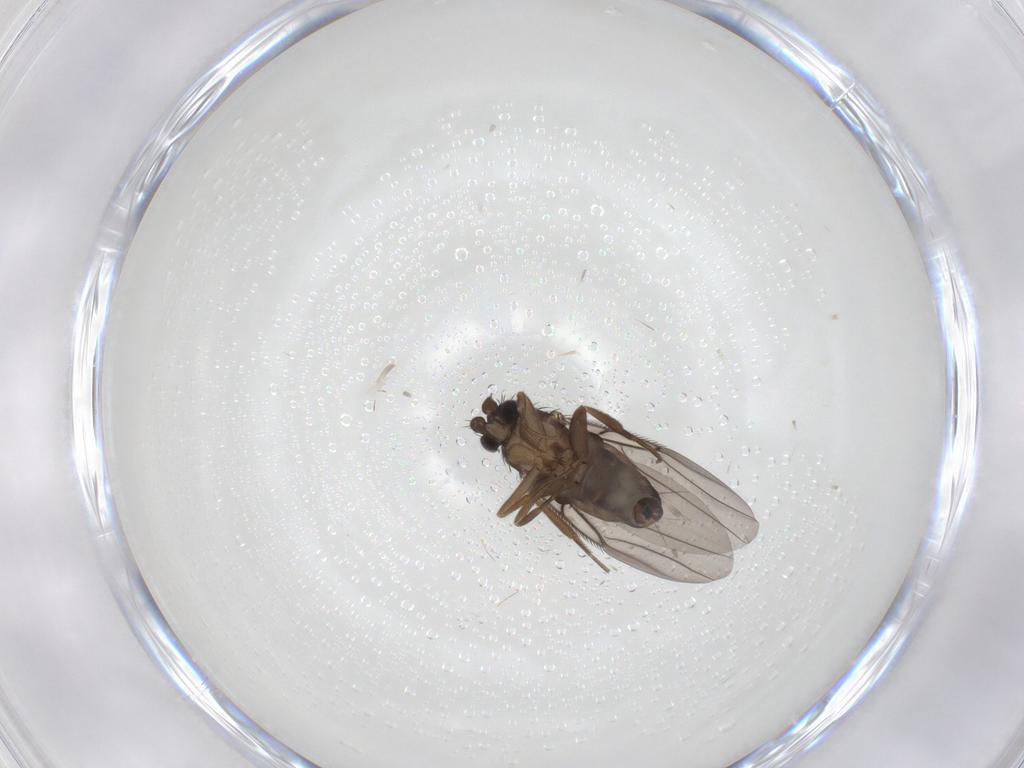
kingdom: Animalia
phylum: Arthropoda
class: Insecta
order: Diptera
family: Phoridae
